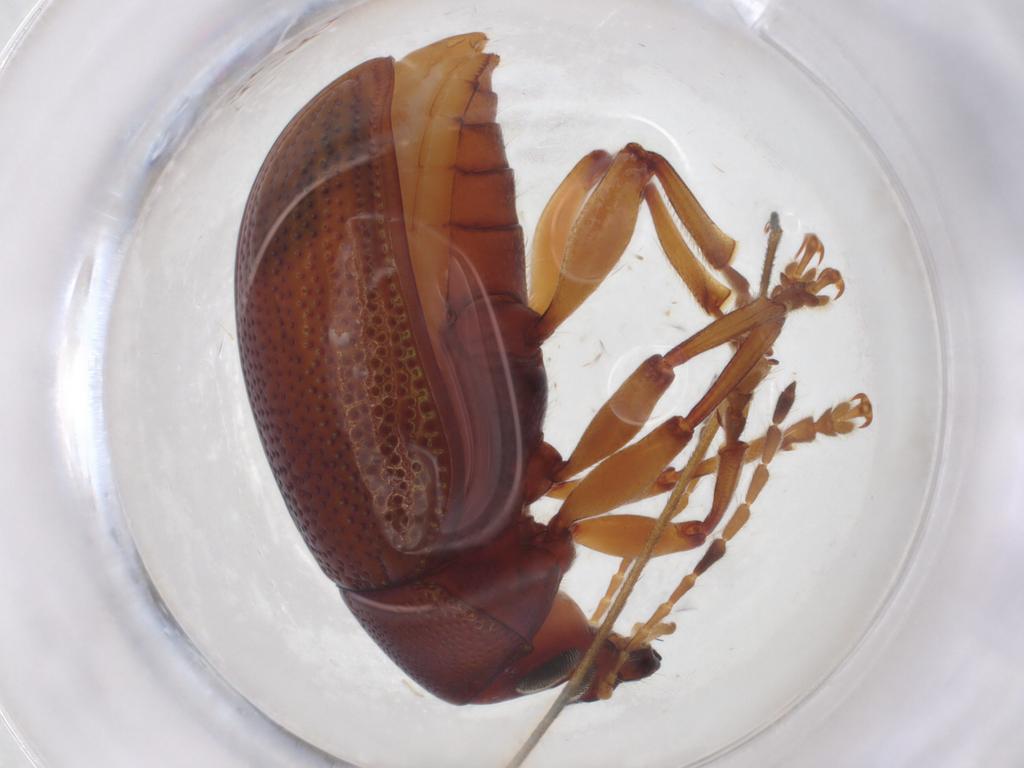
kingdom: Animalia
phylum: Arthropoda
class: Insecta
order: Coleoptera
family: Chrysomelidae
